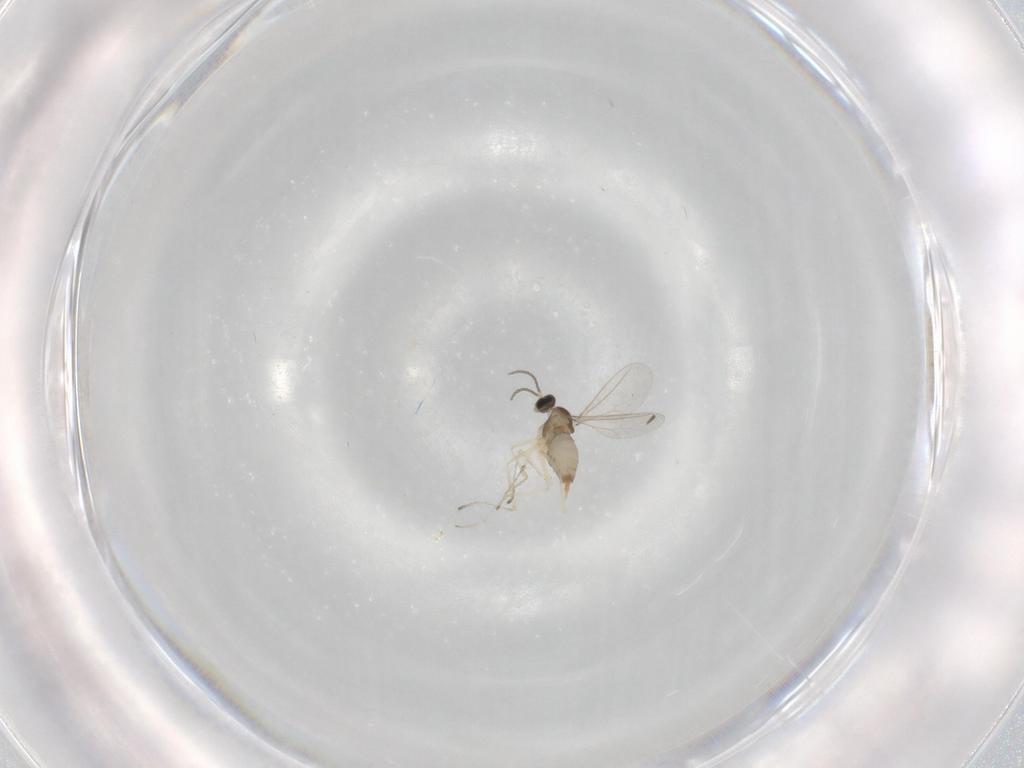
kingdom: Animalia
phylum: Arthropoda
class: Insecta
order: Diptera
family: Cecidomyiidae
